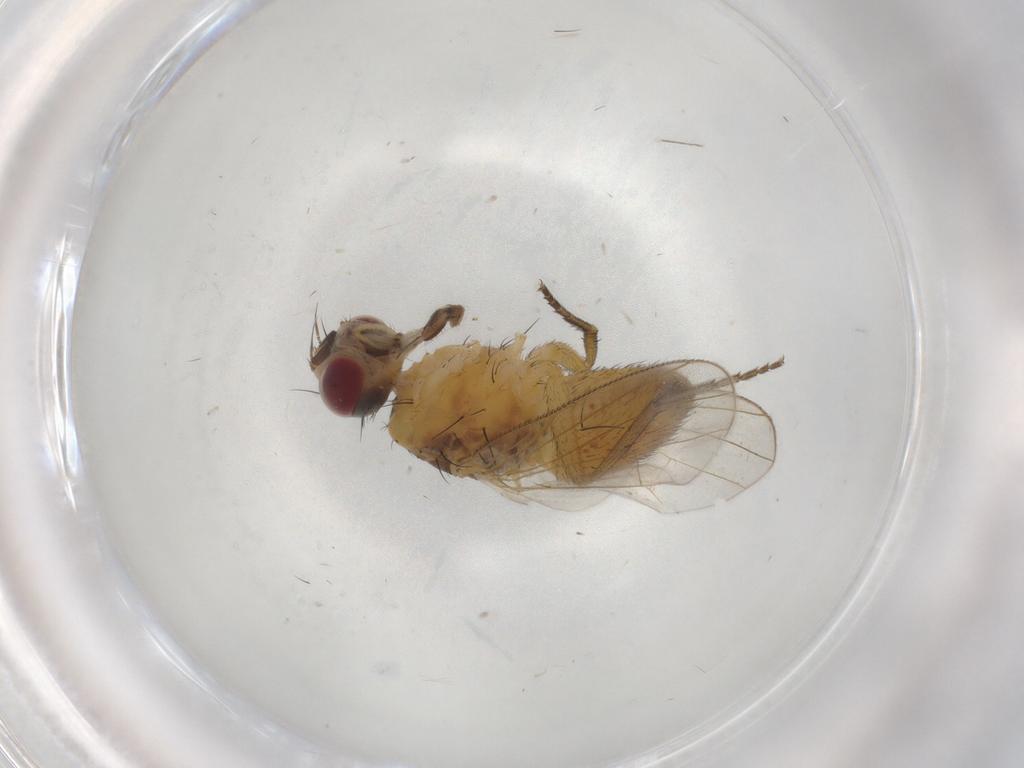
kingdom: Animalia
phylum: Arthropoda
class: Insecta
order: Diptera
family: Muscidae
